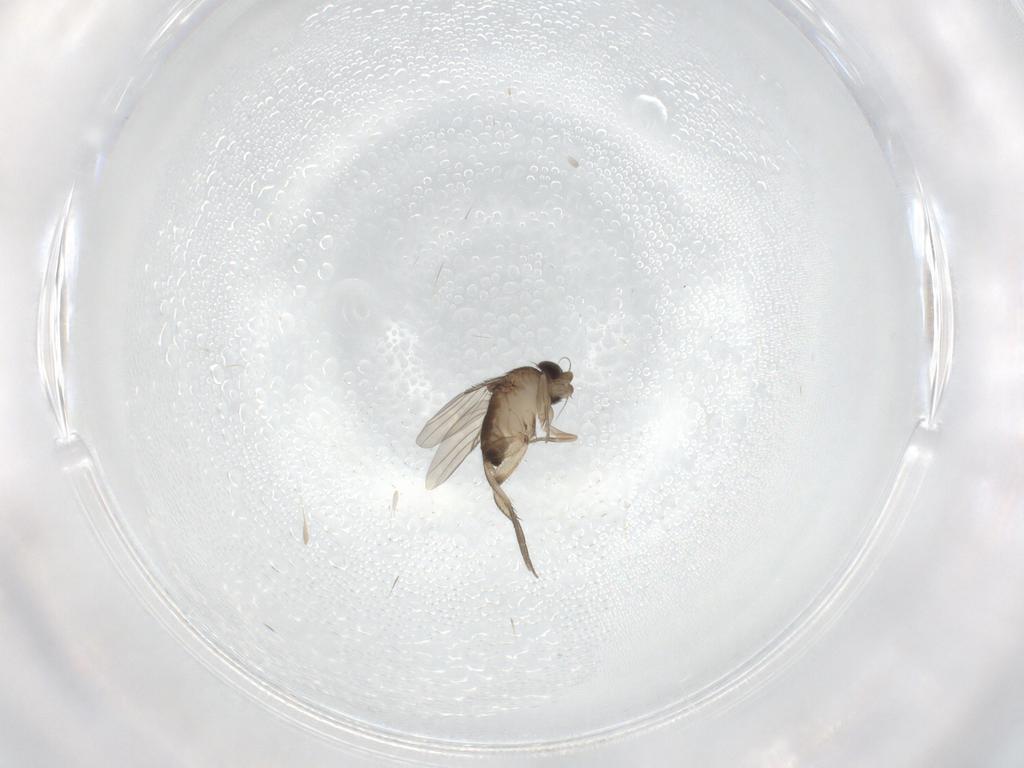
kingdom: Animalia
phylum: Arthropoda
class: Insecta
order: Diptera
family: Phoridae
